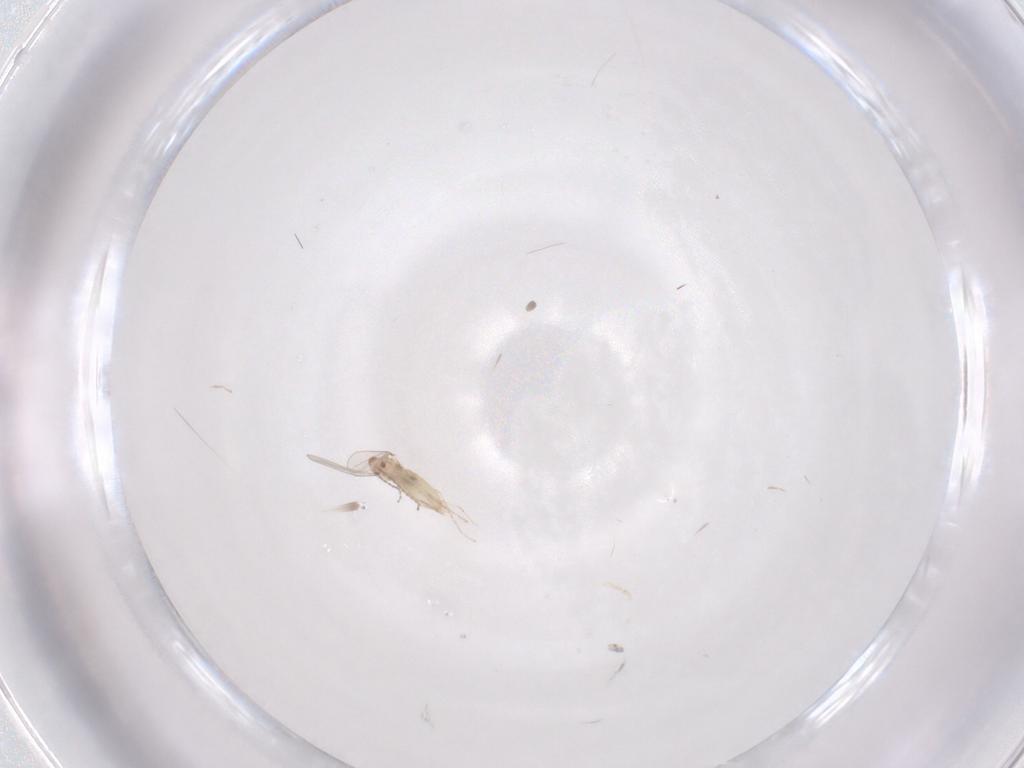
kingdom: Animalia
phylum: Arthropoda
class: Insecta
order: Diptera
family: Cecidomyiidae
